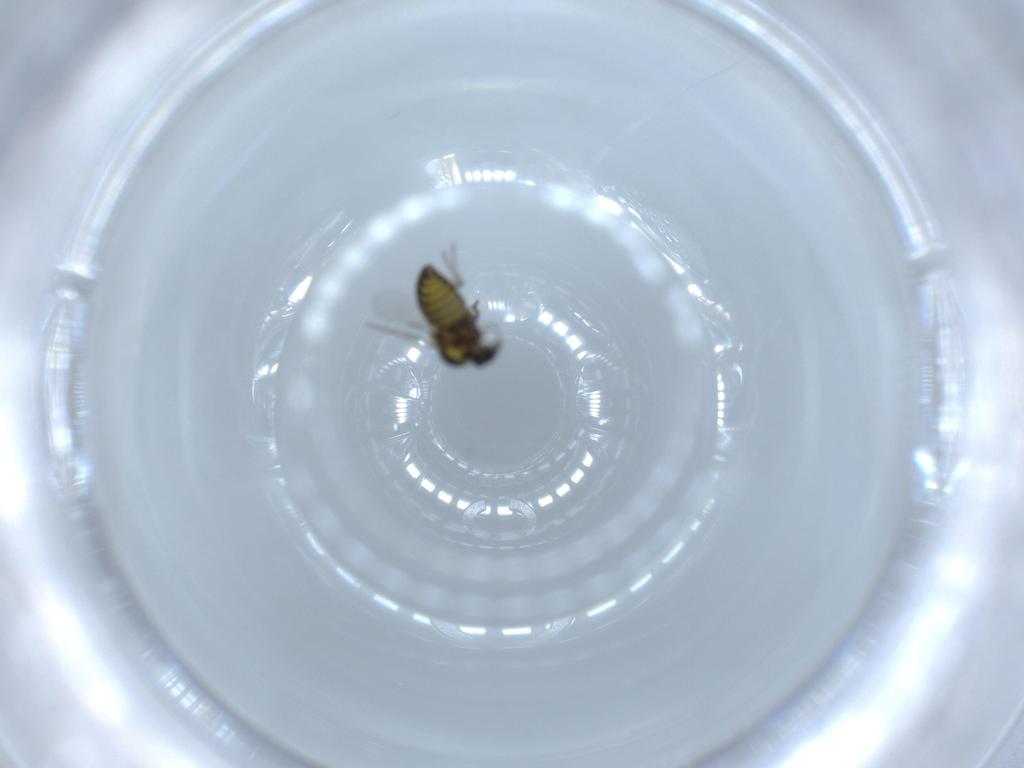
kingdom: Animalia
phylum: Arthropoda
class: Insecta
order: Diptera
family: Ceratopogonidae
